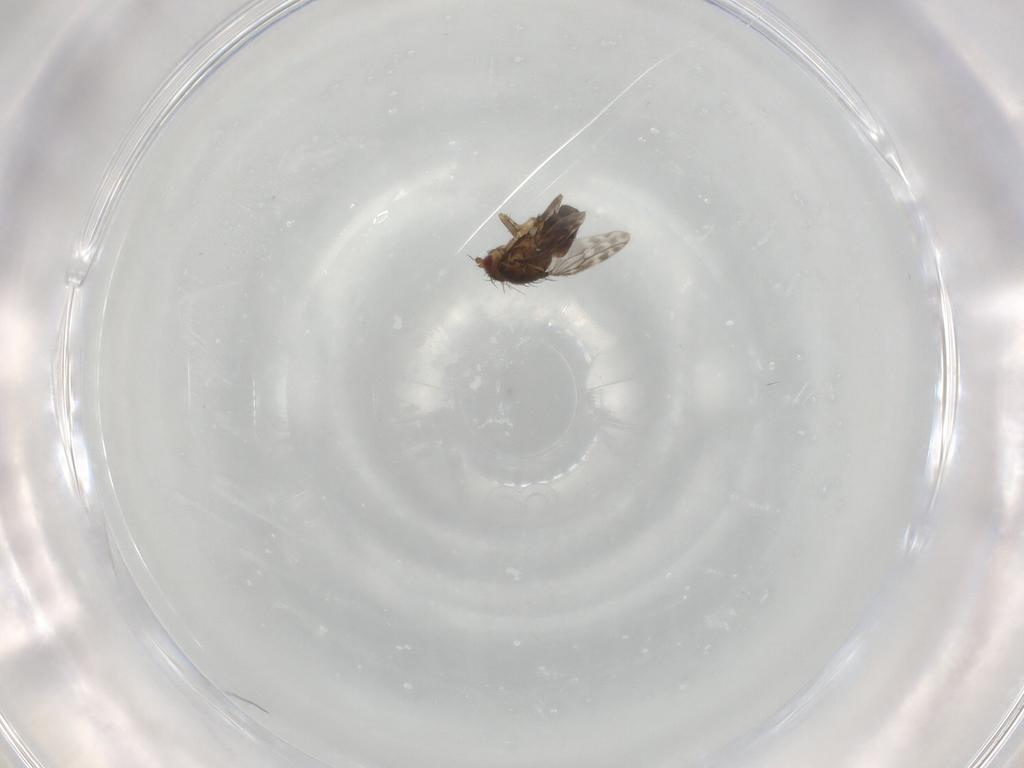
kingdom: Animalia
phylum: Arthropoda
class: Insecta
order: Diptera
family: Sphaeroceridae
